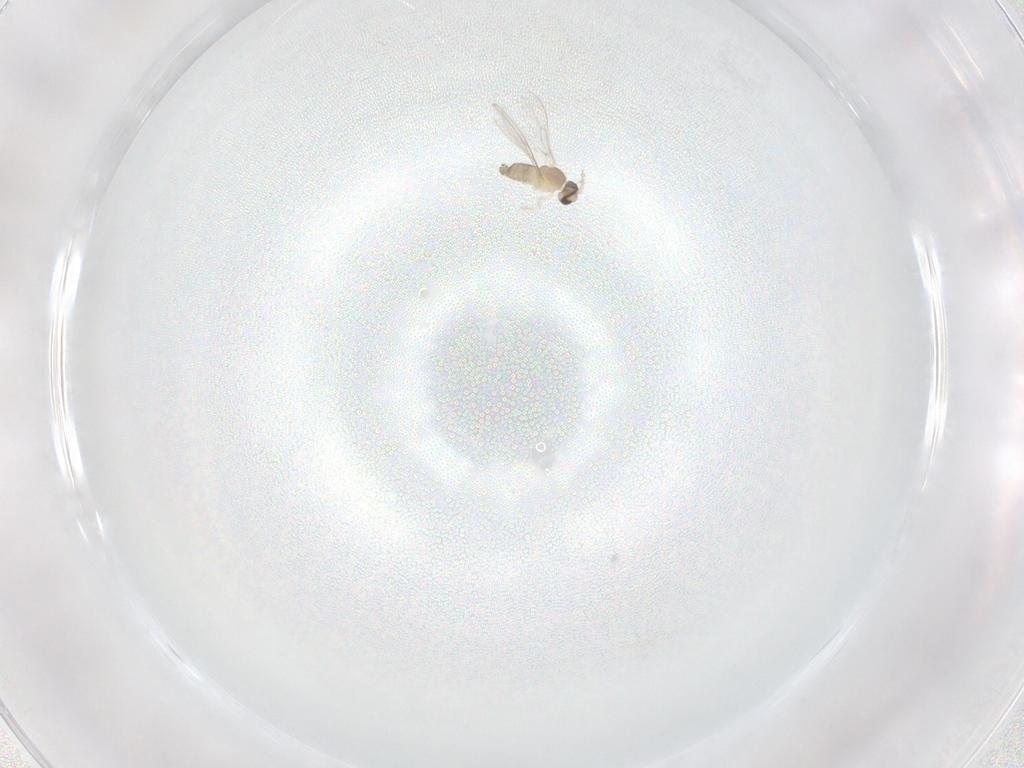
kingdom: Animalia
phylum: Arthropoda
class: Insecta
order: Diptera
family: Cecidomyiidae
